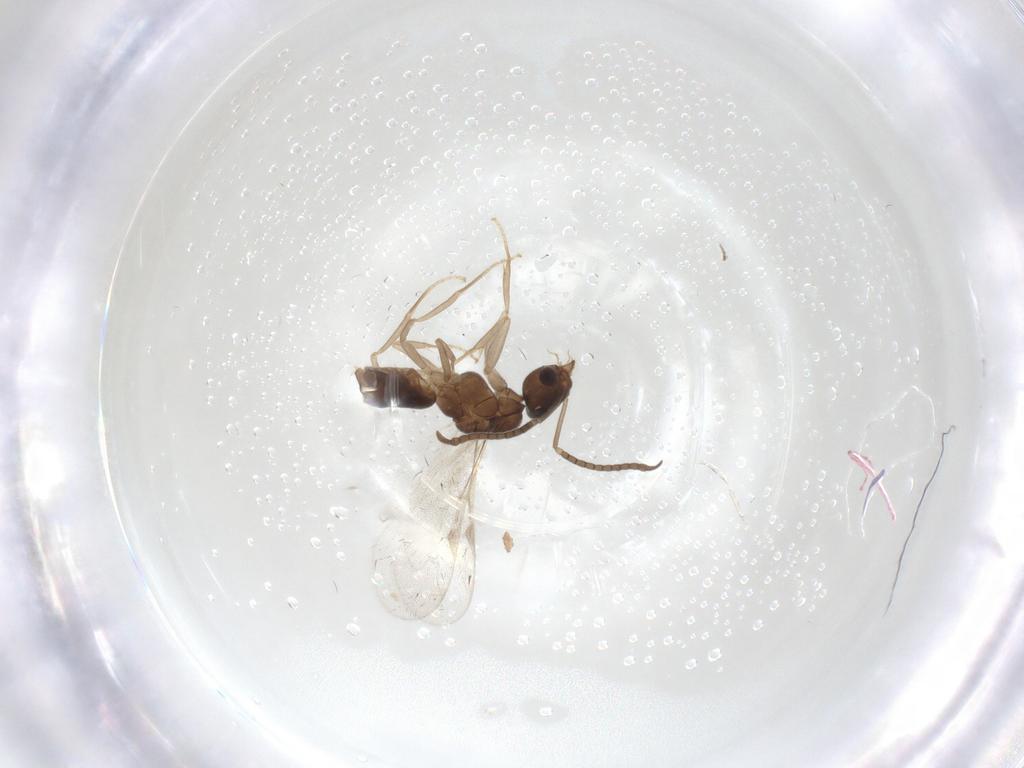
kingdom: Animalia
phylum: Arthropoda
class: Insecta
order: Hymenoptera
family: Formicidae
